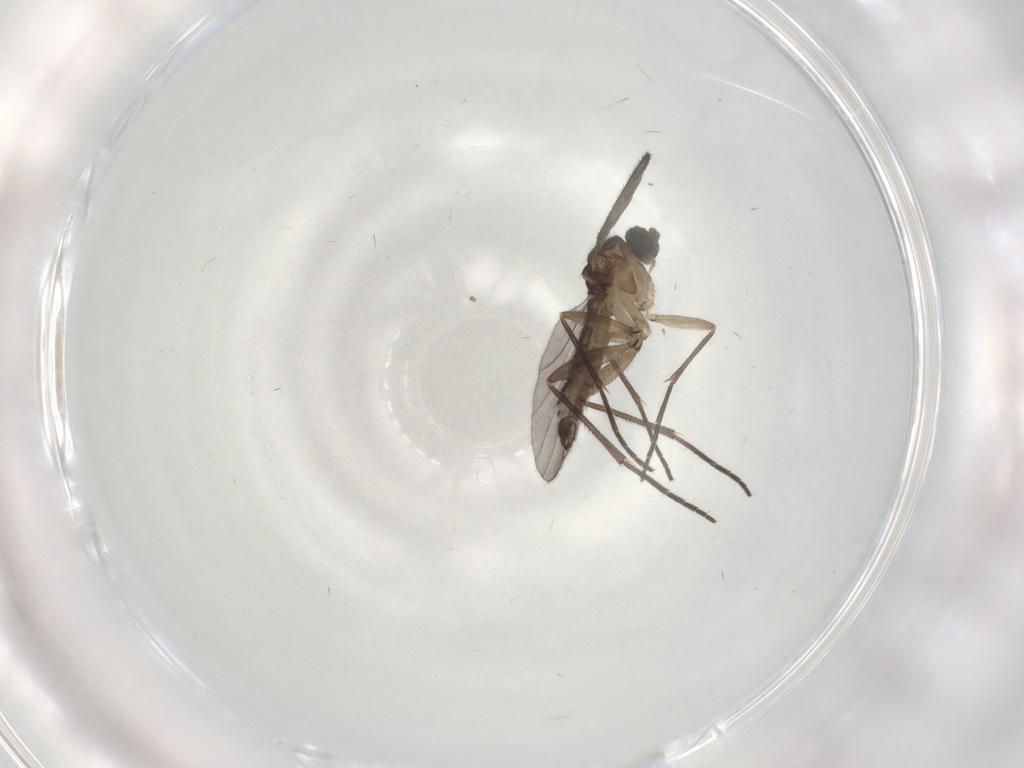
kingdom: Animalia
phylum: Arthropoda
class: Insecta
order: Diptera
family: Sciaridae
